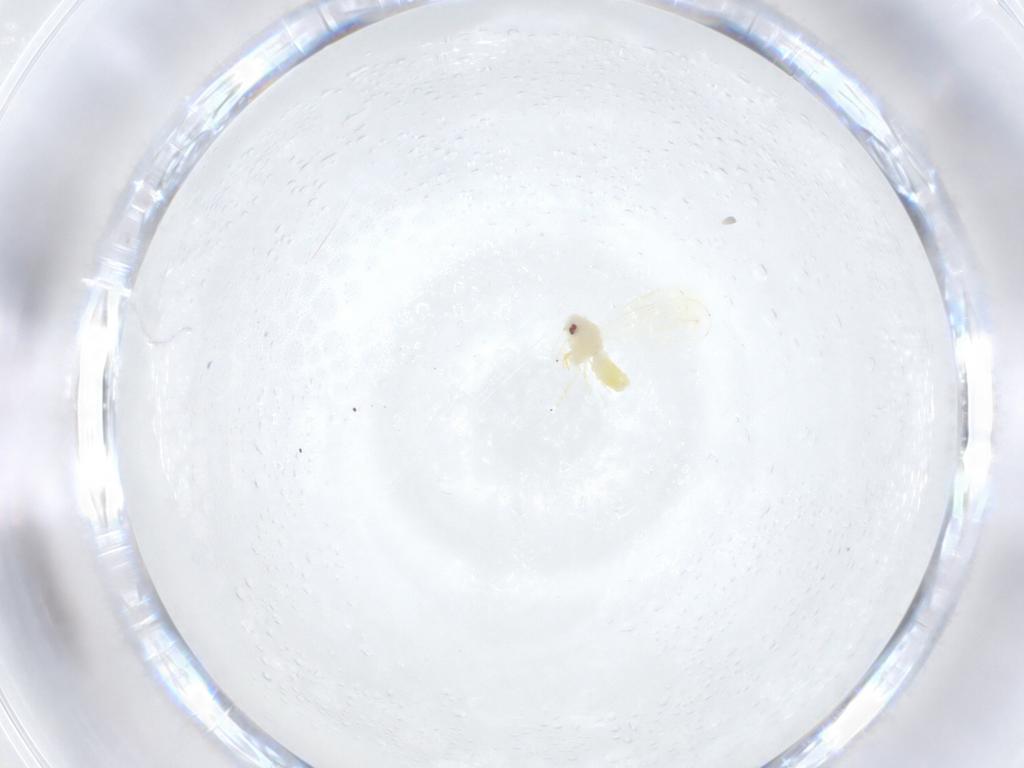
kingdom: Animalia
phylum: Arthropoda
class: Insecta
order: Hemiptera
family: Aleyrodidae
